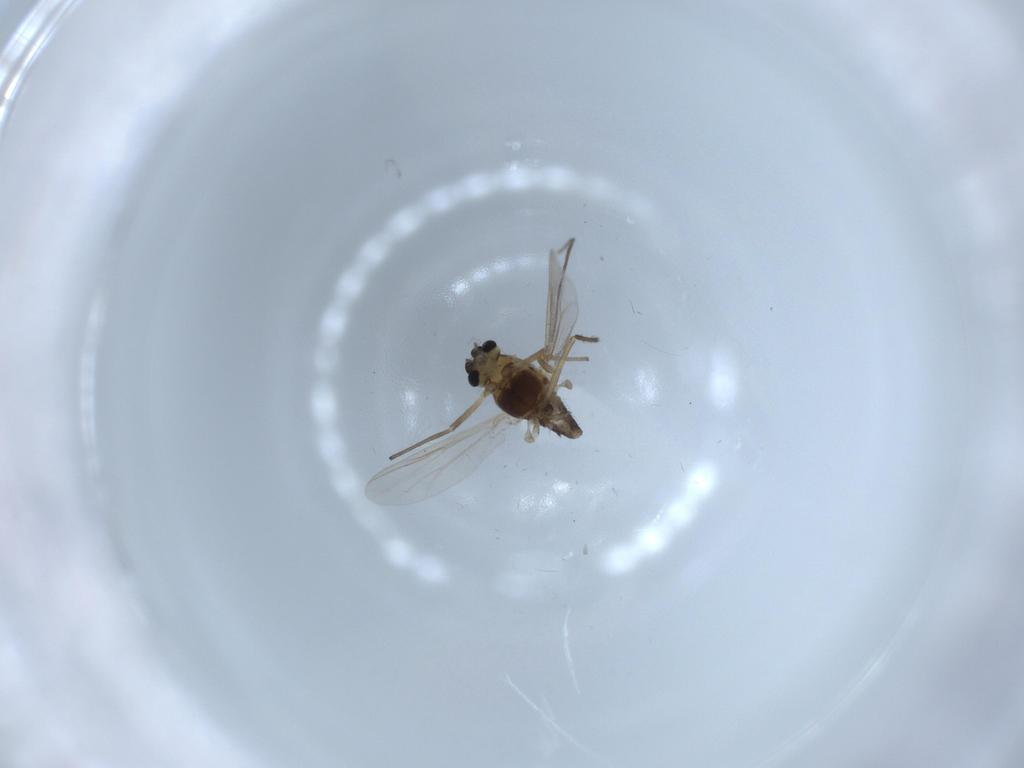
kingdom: Animalia
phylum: Arthropoda
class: Insecta
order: Diptera
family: Chironomidae
